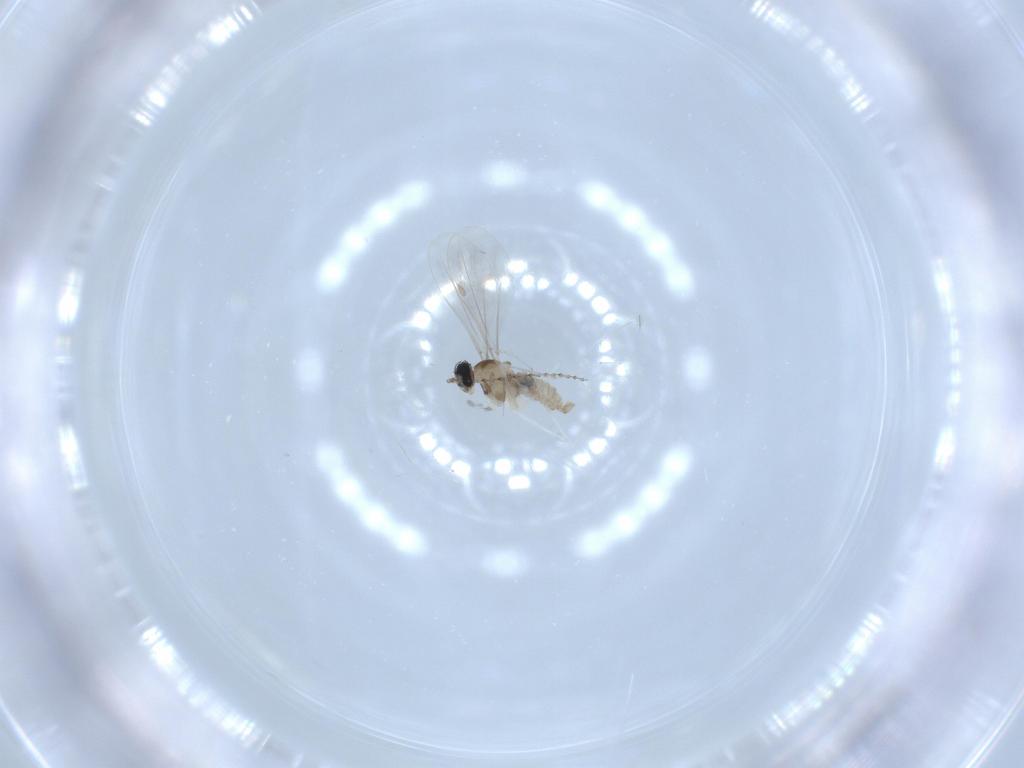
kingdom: Animalia
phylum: Arthropoda
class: Insecta
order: Diptera
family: Cecidomyiidae
